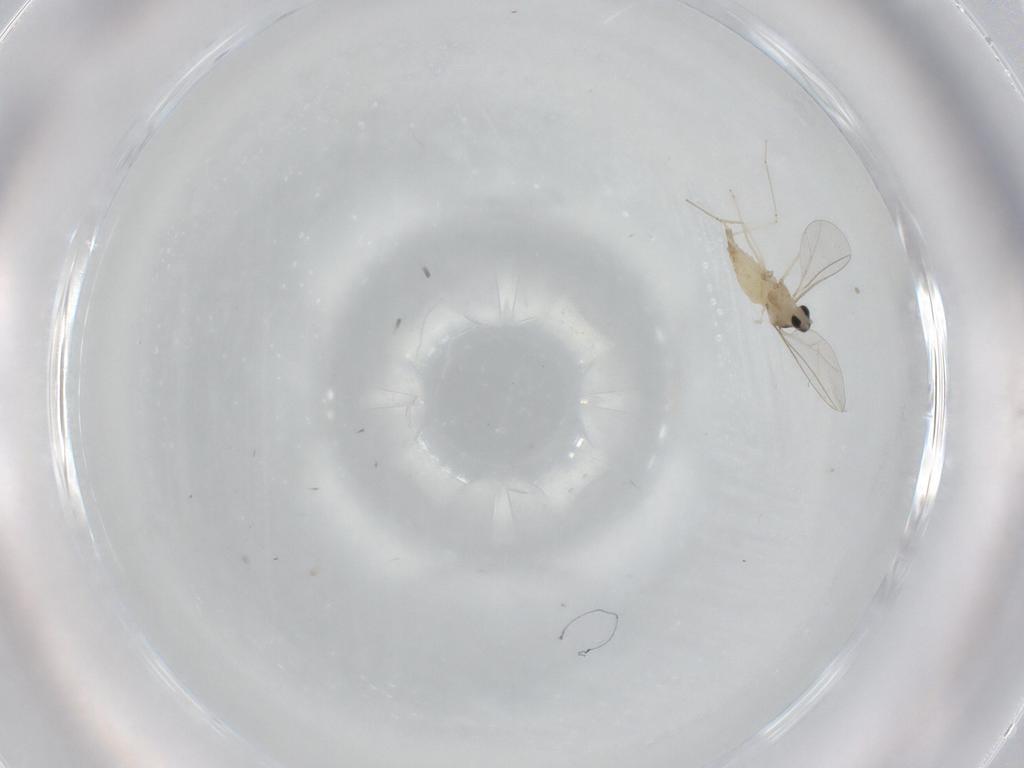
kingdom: Animalia
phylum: Arthropoda
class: Insecta
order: Diptera
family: Cecidomyiidae
